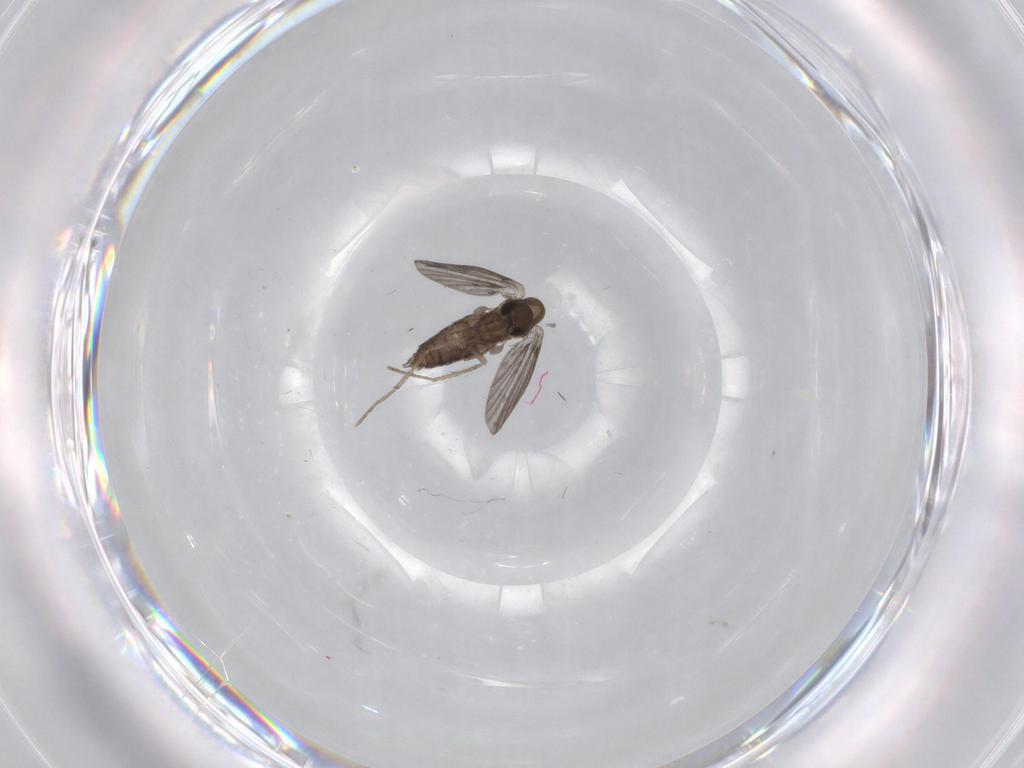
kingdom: Animalia
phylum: Arthropoda
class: Insecta
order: Diptera
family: Psychodidae
